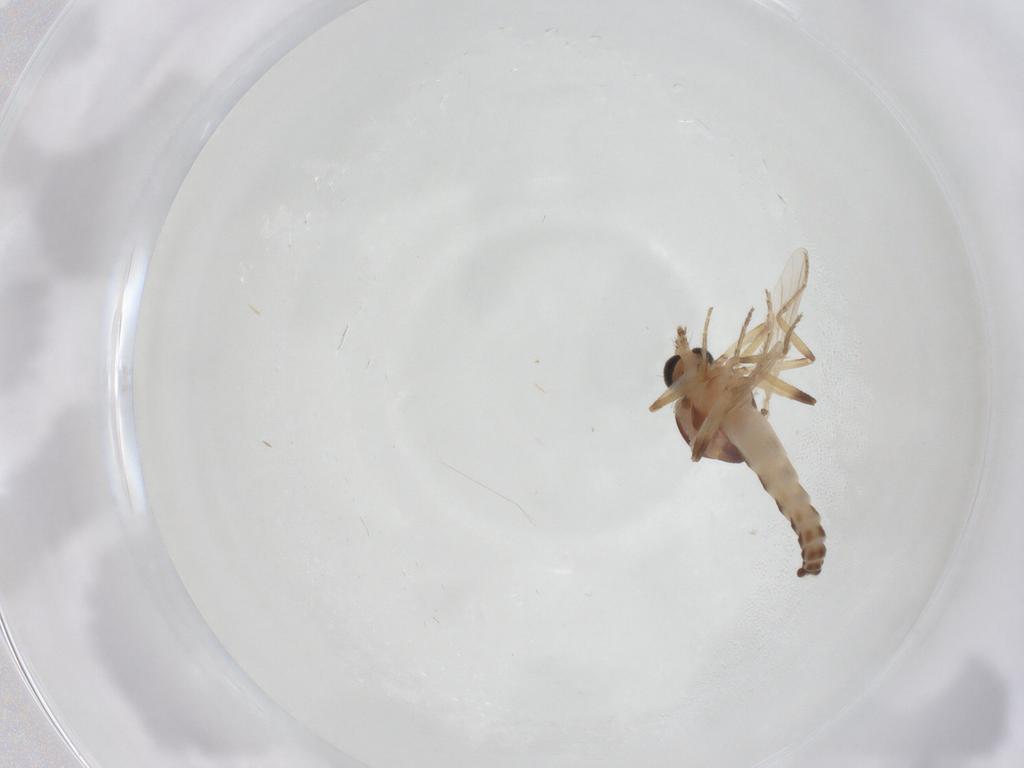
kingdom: Animalia
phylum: Arthropoda
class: Insecta
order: Diptera
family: Ceratopogonidae
